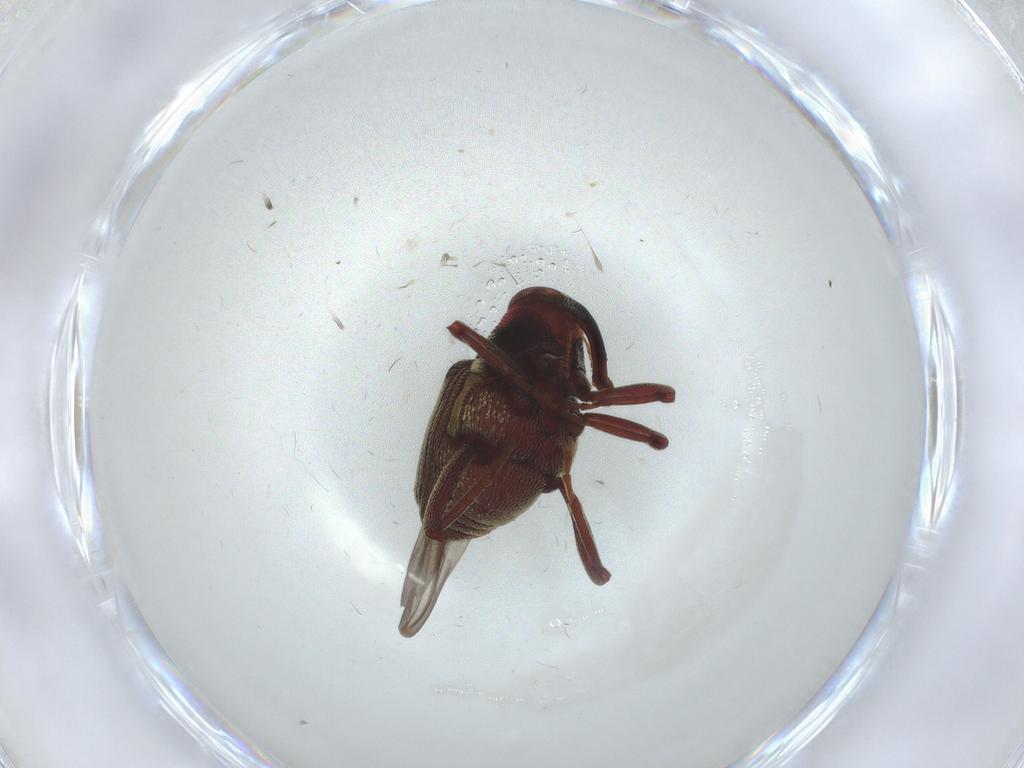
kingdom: Animalia
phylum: Arthropoda
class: Insecta
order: Coleoptera
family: Curculionidae
